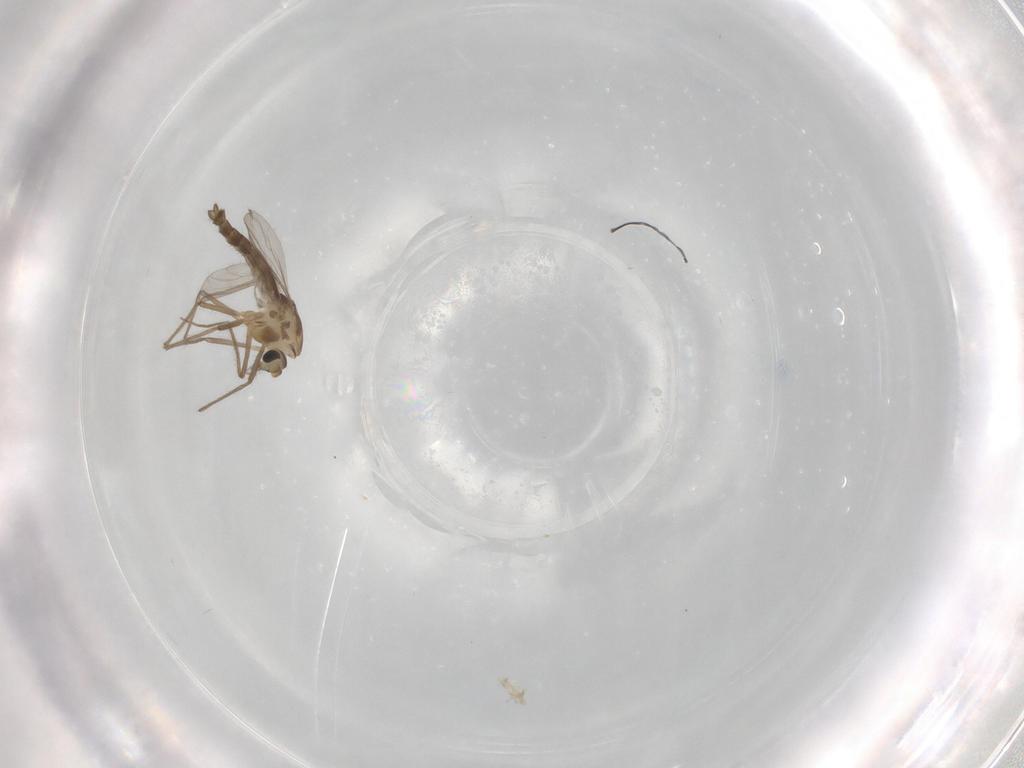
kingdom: Animalia
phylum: Arthropoda
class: Insecta
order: Diptera
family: Chironomidae
